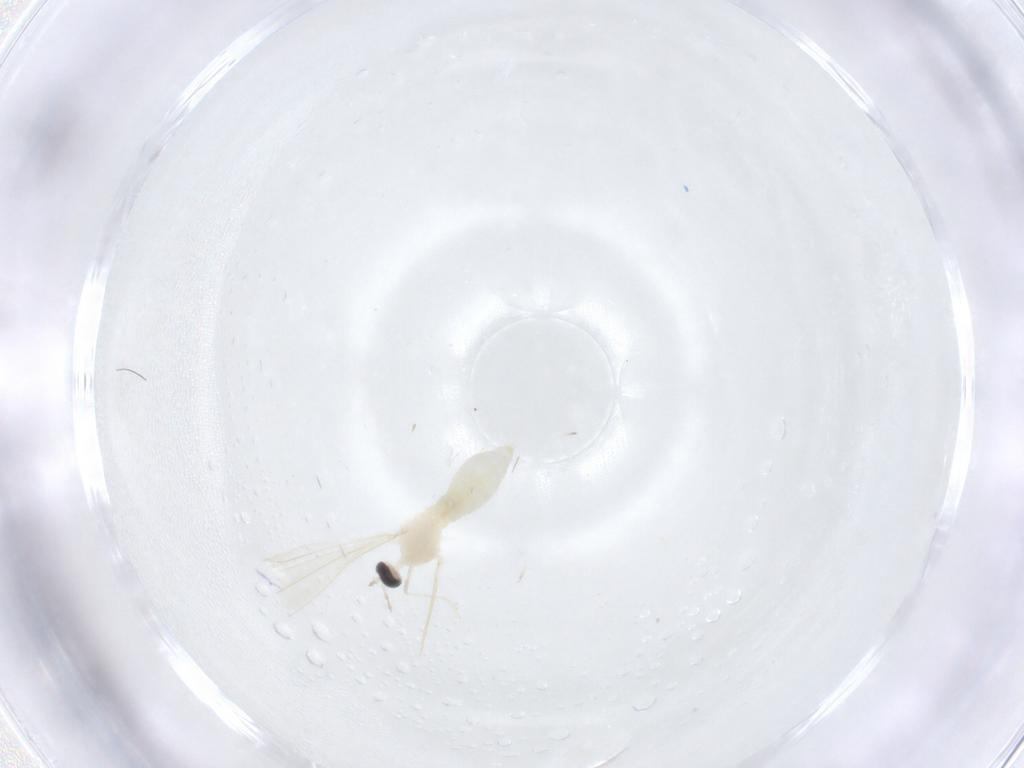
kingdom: Animalia
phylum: Arthropoda
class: Insecta
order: Diptera
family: Cecidomyiidae
